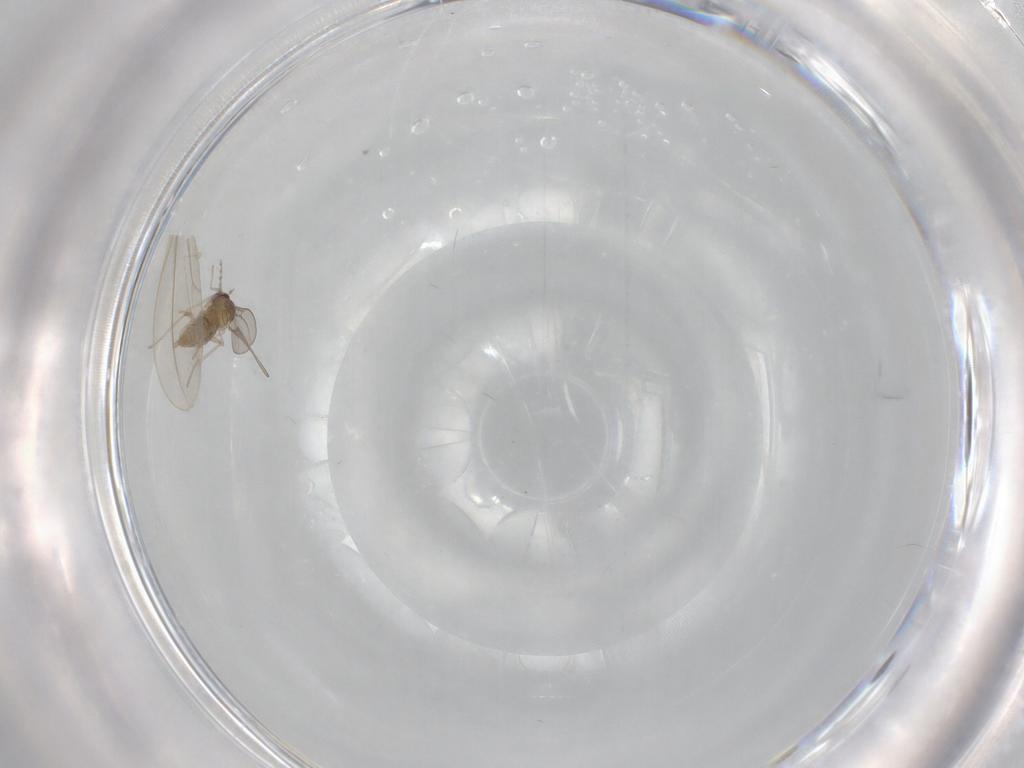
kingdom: Animalia
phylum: Arthropoda
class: Insecta
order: Diptera
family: Cecidomyiidae
